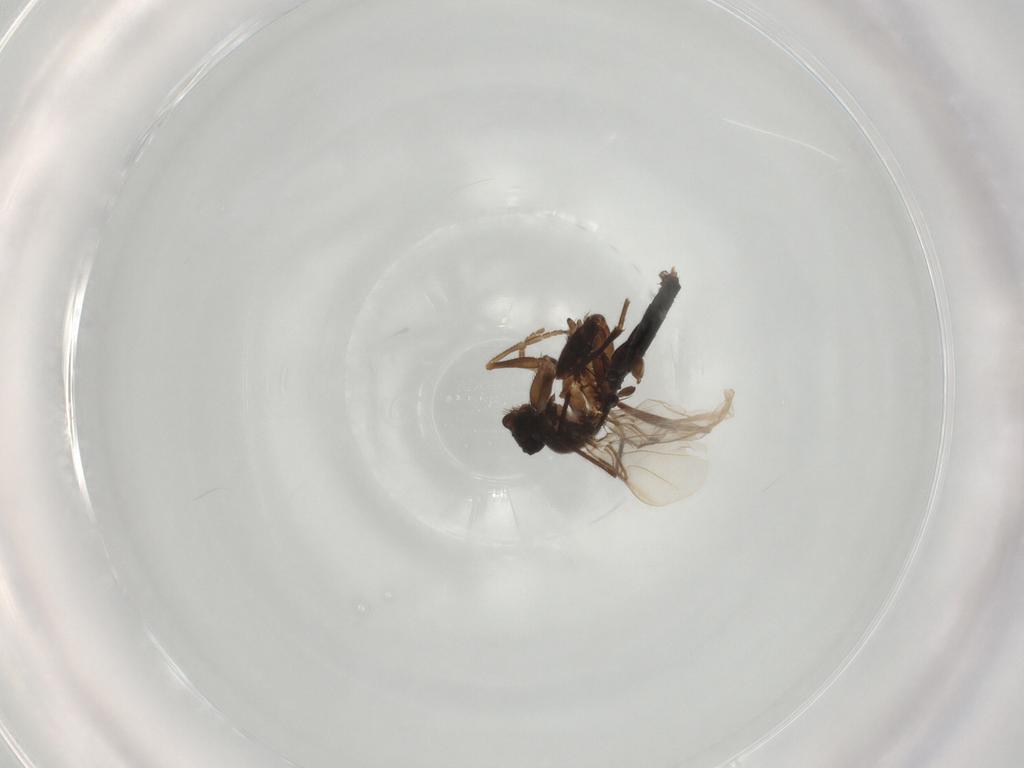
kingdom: Animalia
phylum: Arthropoda
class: Insecta
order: Diptera
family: Phoridae
